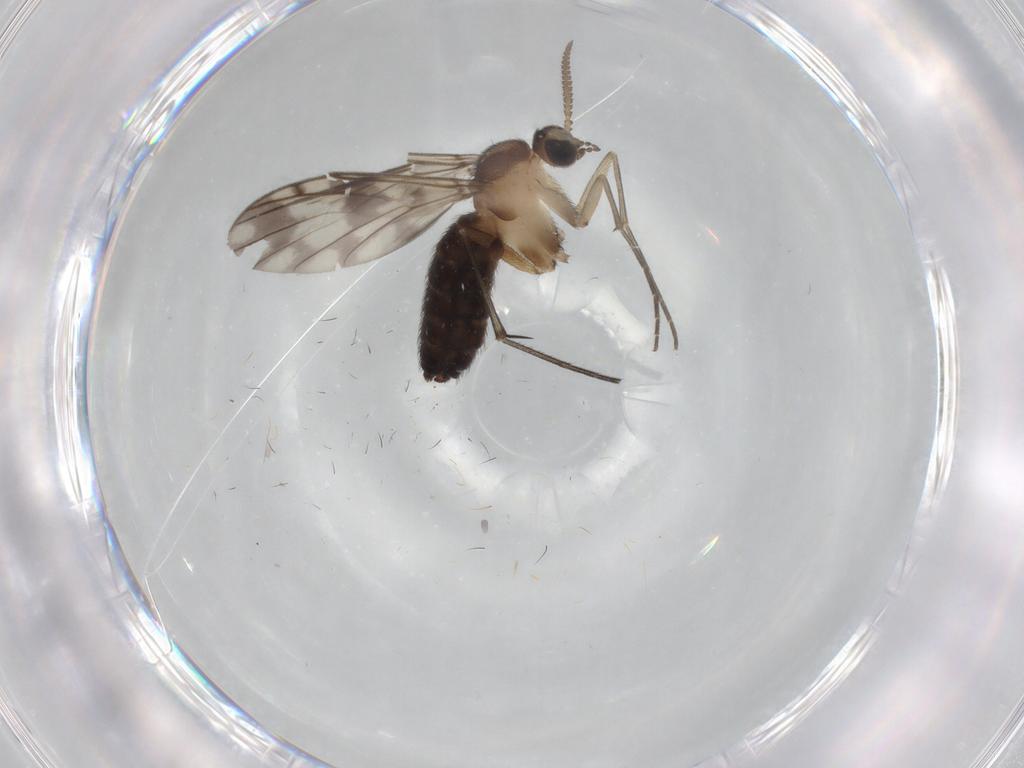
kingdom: Animalia
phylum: Arthropoda
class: Insecta
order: Diptera
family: Keroplatidae
